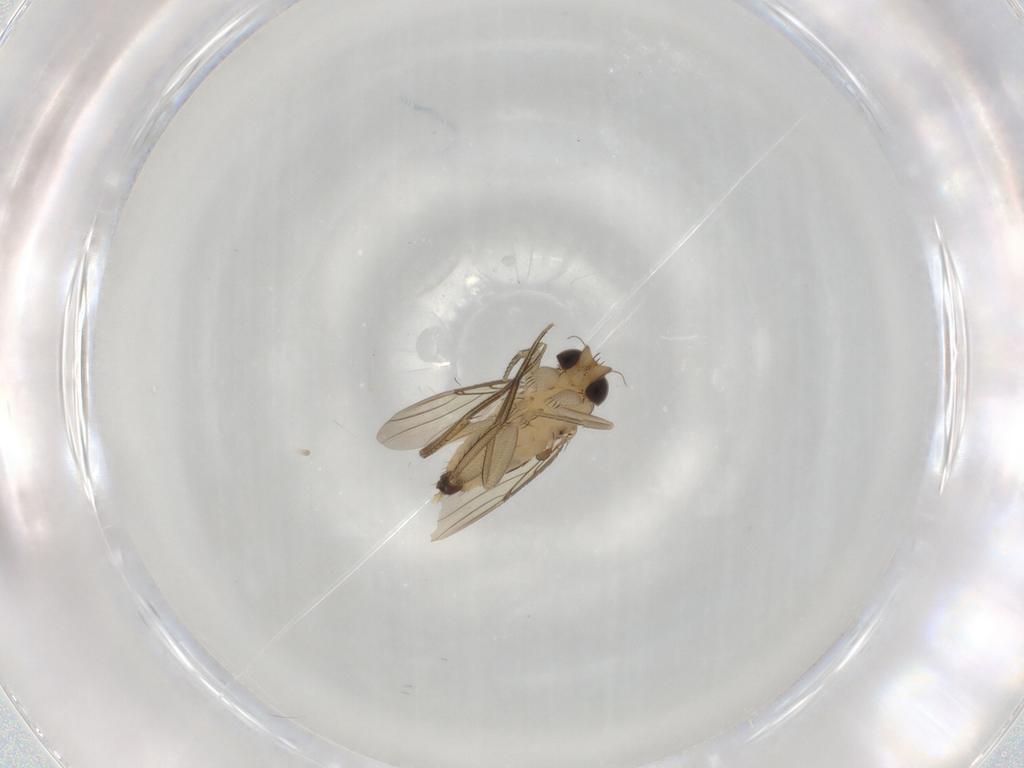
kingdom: Animalia
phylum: Arthropoda
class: Insecta
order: Diptera
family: Phoridae
